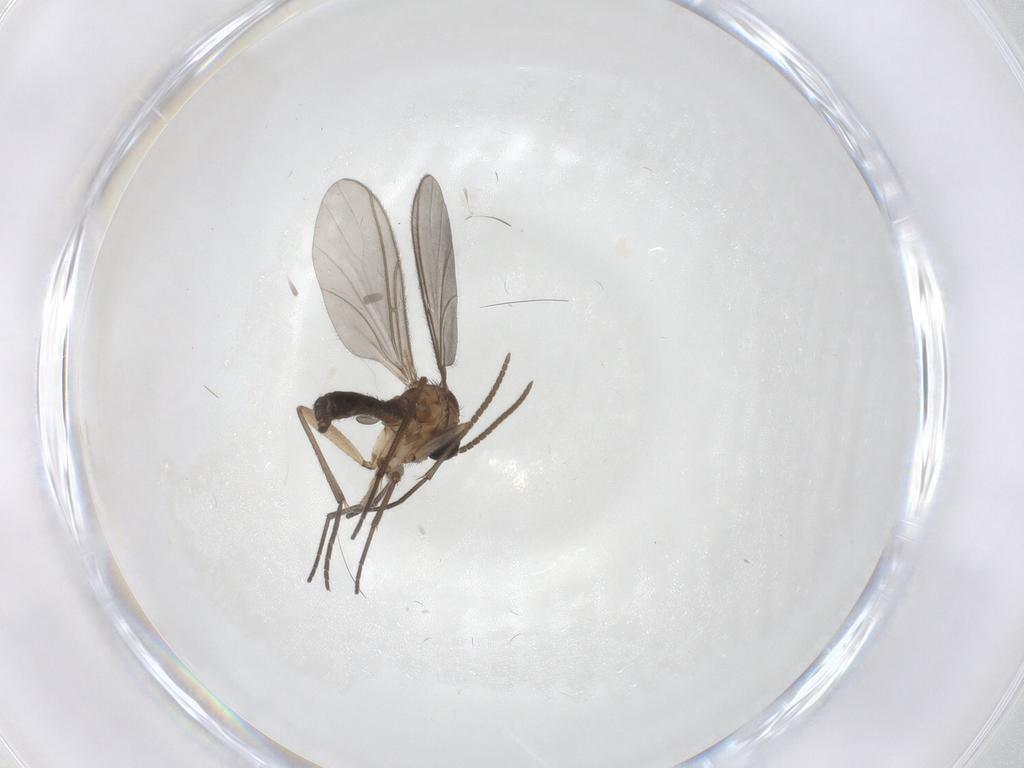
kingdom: Animalia
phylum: Arthropoda
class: Insecta
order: Diptera
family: Sciaridae
